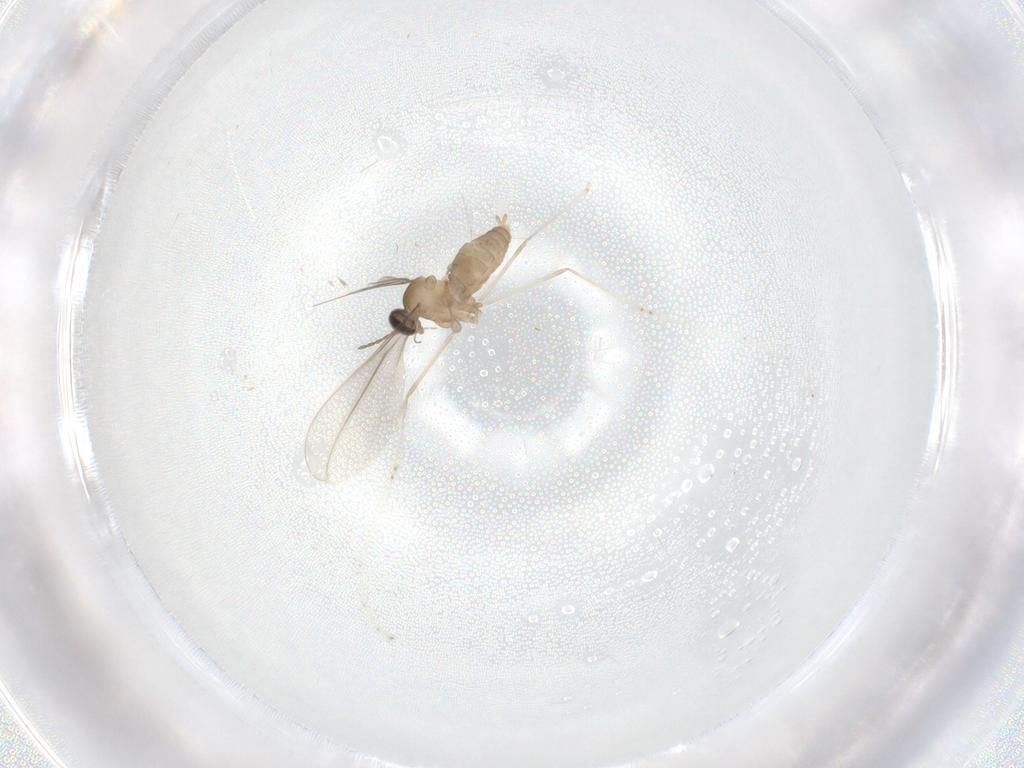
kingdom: Animalia
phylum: Arthropoda
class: Insecta
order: Diptera
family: Cecidomyiidae
